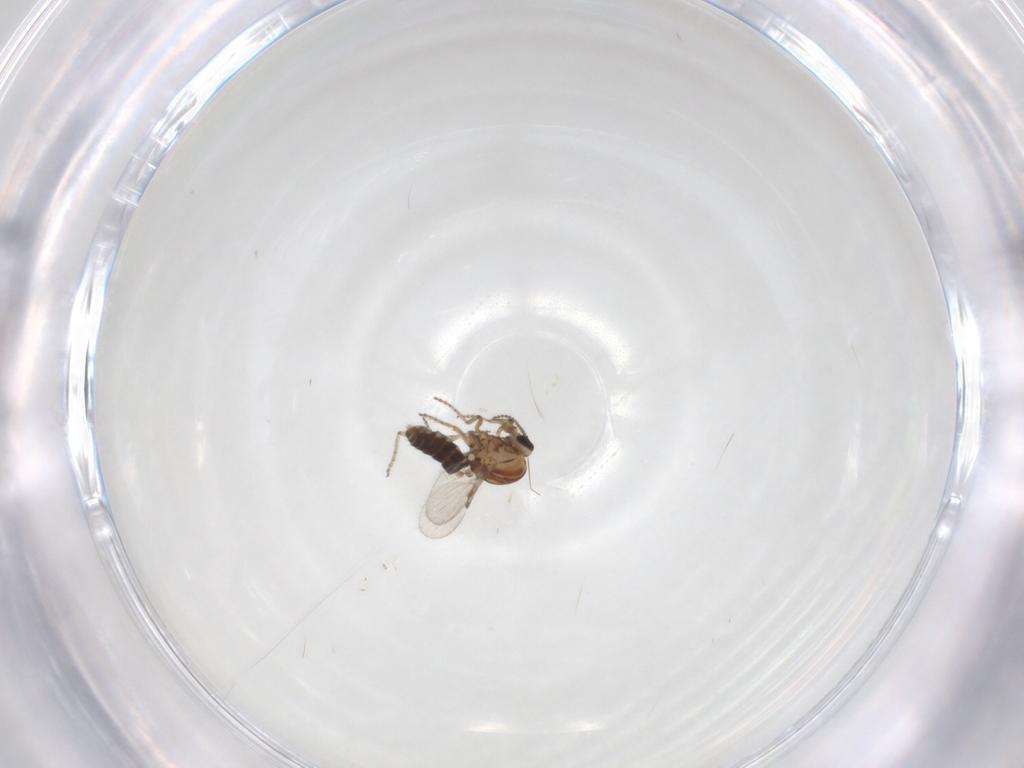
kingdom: Animalia
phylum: Arthropoda
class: Insecta
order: Diptera
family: Ceratopogonidae
